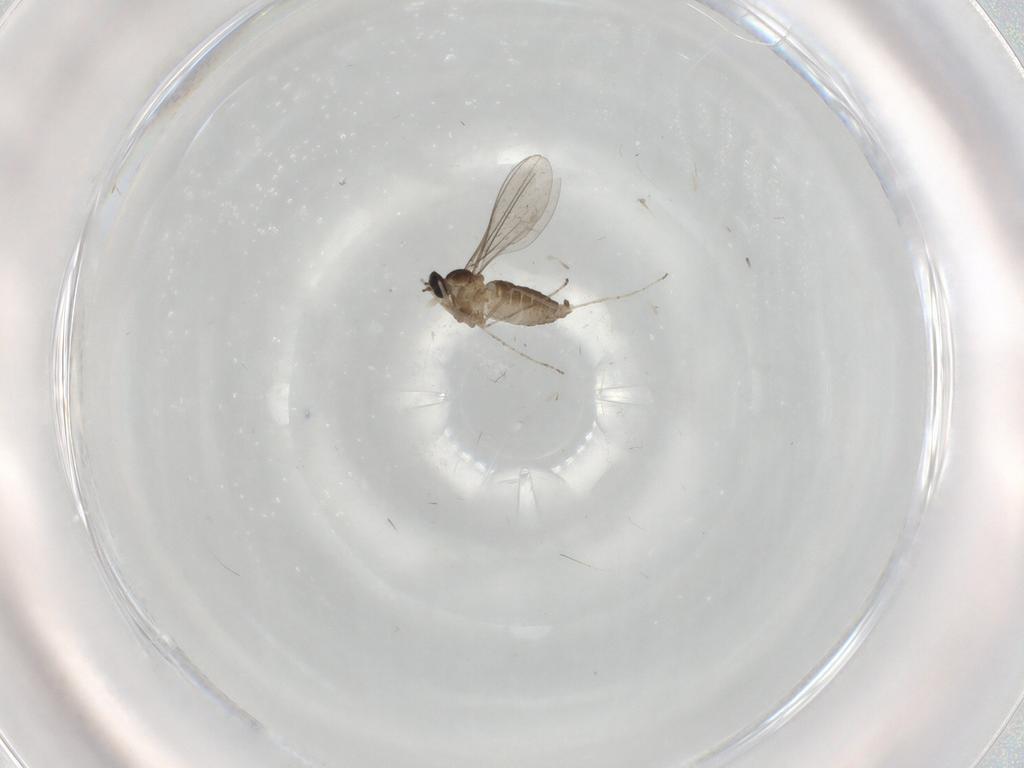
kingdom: Animalia
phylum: Arthropoda
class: Insecta
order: Diptera
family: Cecidomyiidae
